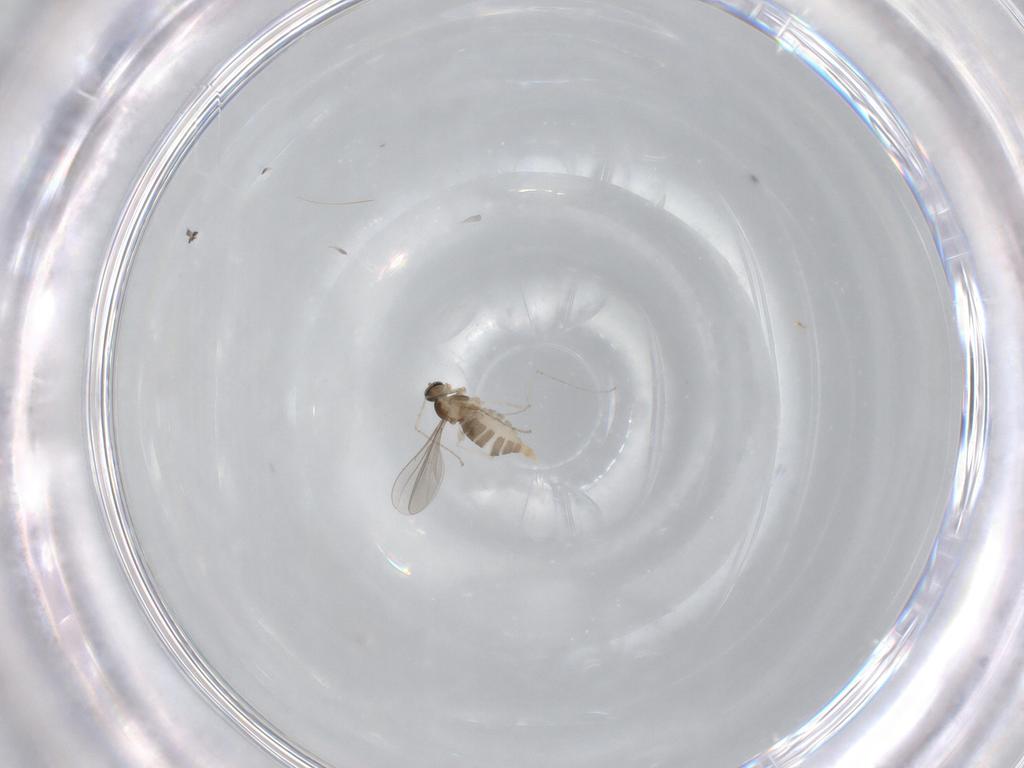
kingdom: Animalia
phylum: Arthropoda
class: Insecta
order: Diptera
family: Cecidomyiidae
